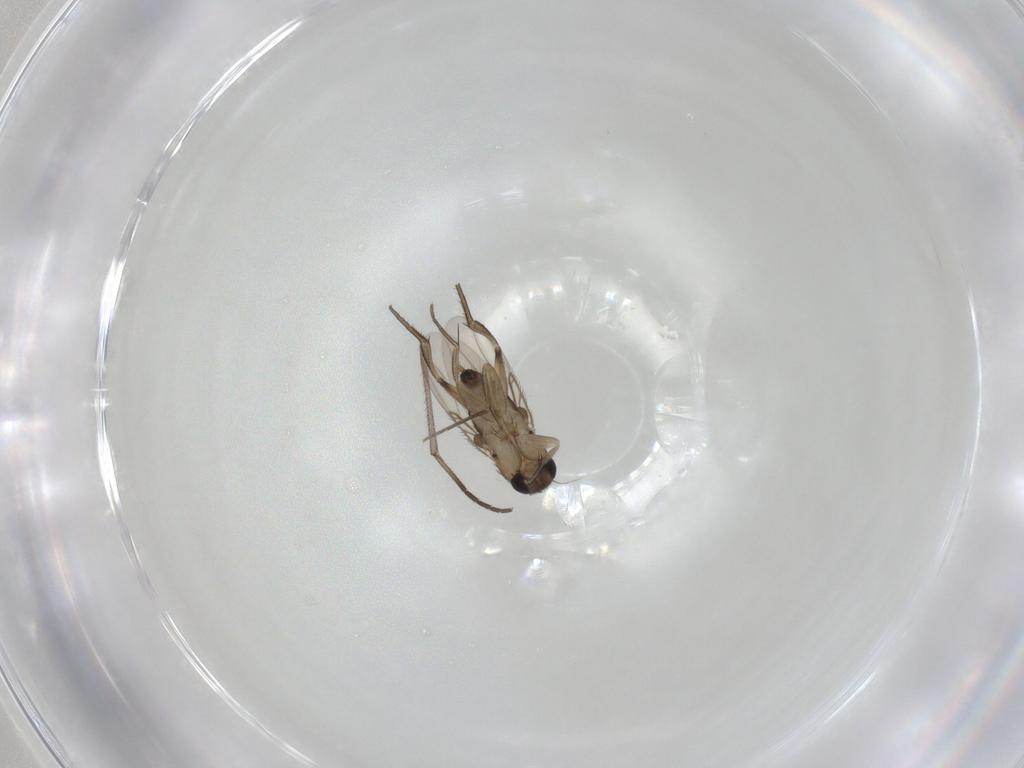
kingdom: Animalia
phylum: Arthropoda
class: Insecta
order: Diptera
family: Phoridae
